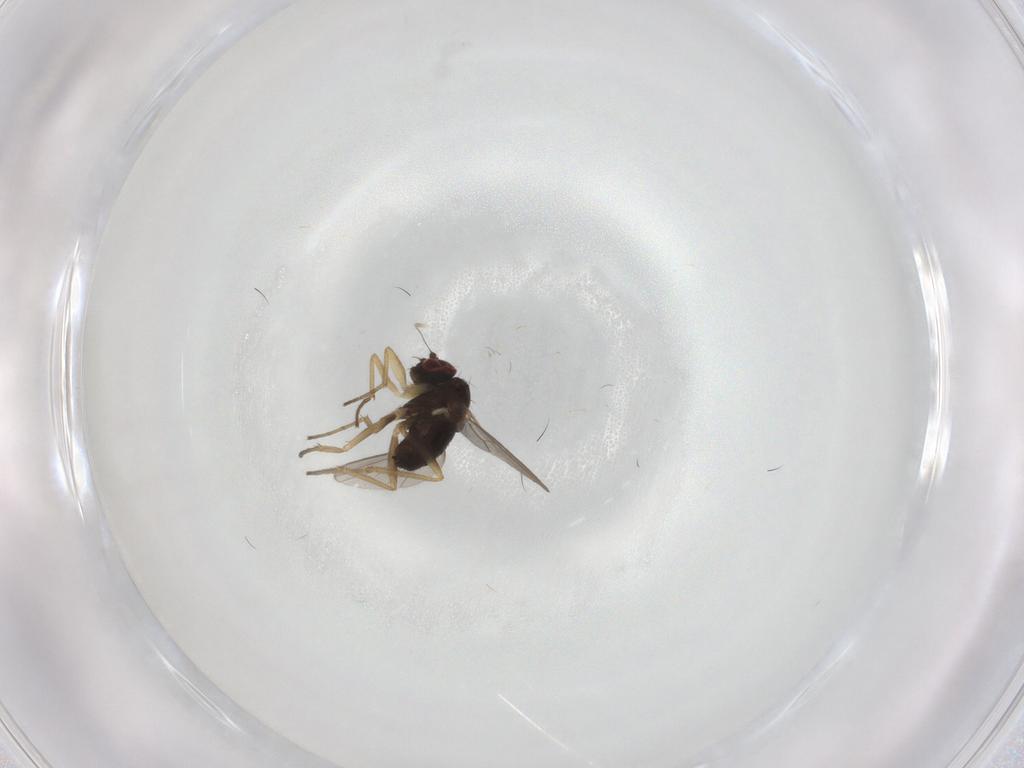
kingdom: Animalia
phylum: Arthropoda
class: Insecta
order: Diptera
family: Dolichopodidae
